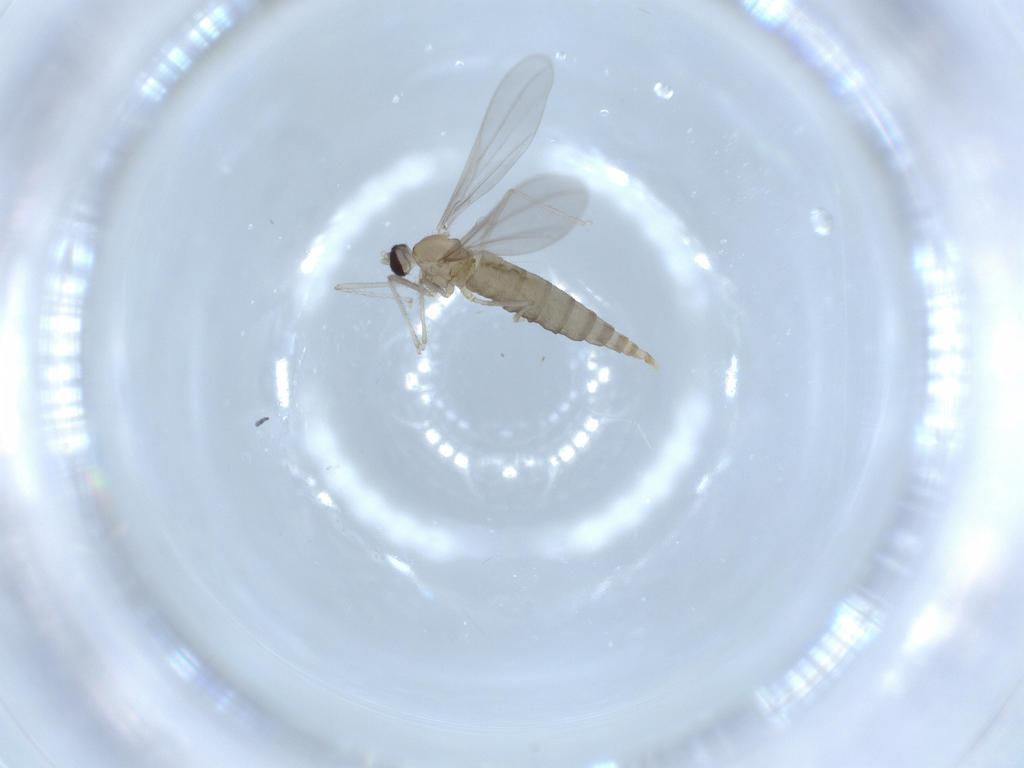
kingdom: Animalia
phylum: Arthropoda
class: Insecta
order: Diptera
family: Cecidomyiidae
